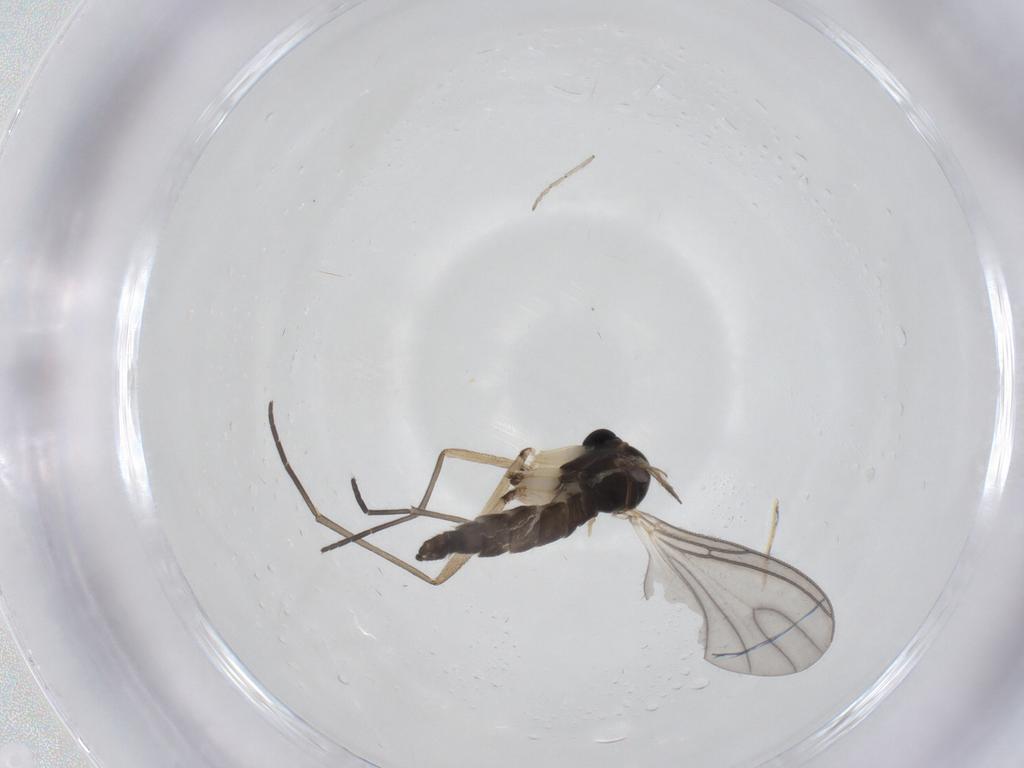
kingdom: Animalia
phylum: Arthropoda
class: Insecta
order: Diptera
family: Sciaridae
